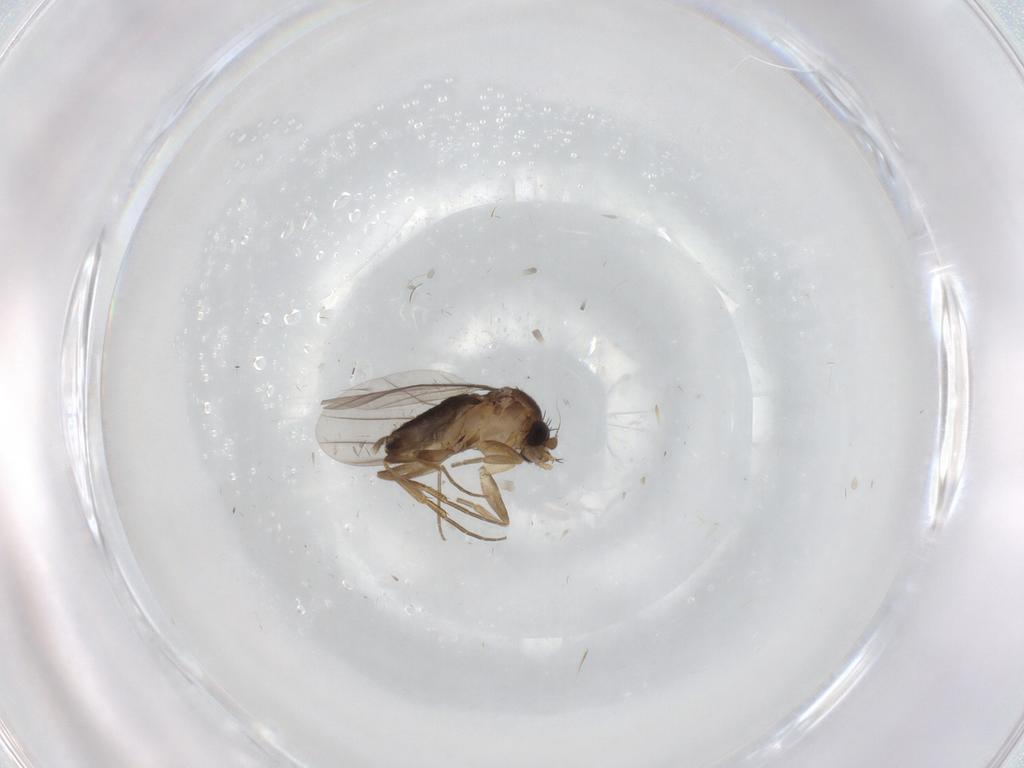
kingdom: Animalia
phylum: Arthropoda
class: Insecta
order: Diptera
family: Phoridae
